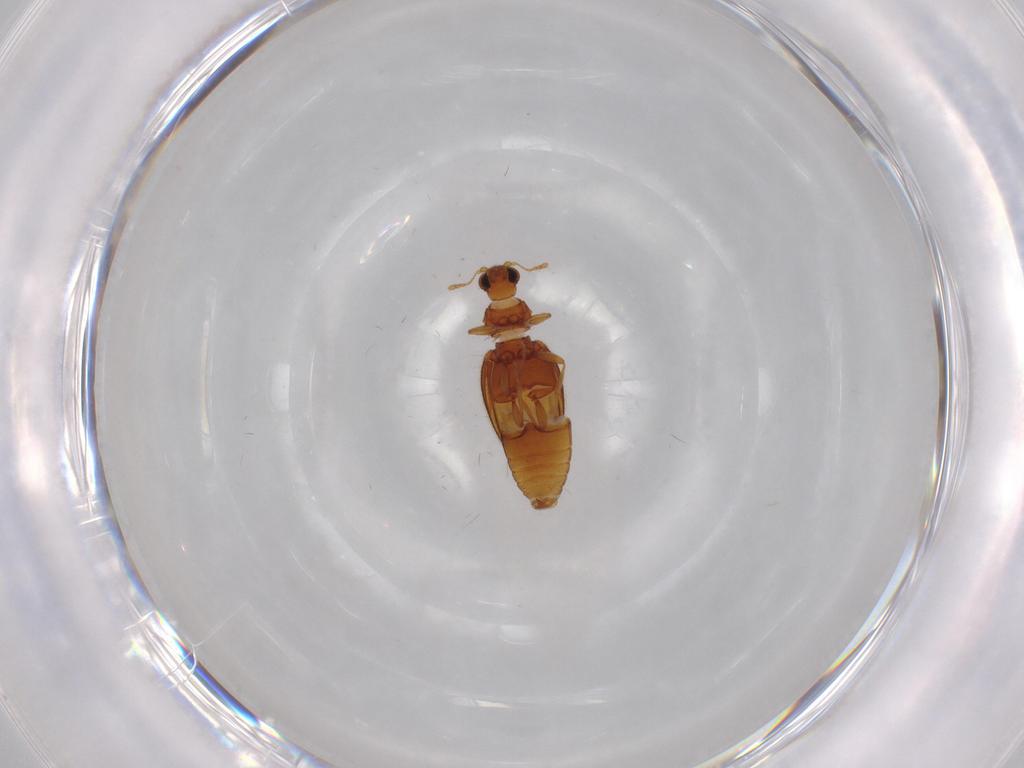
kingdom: Animalia
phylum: Arthropoda
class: Insecta
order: Coleoptera
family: Latridiidae
